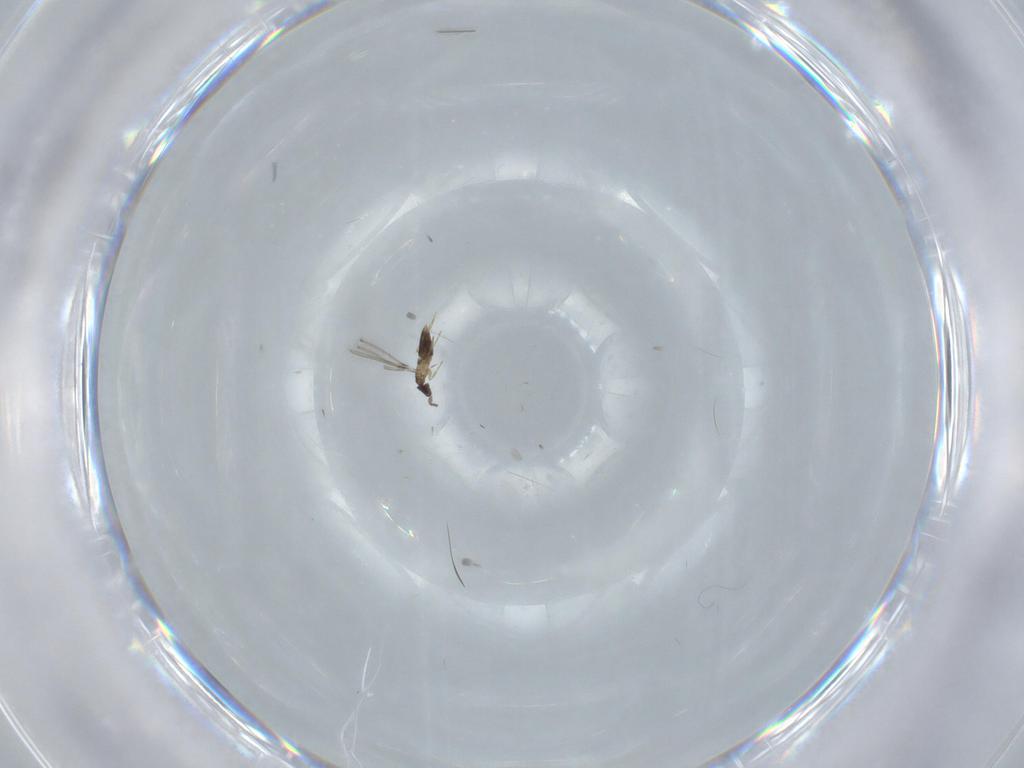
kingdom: Animalia
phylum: Arthropoda
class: Insecta
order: Hymenoptera
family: Mymaridae
